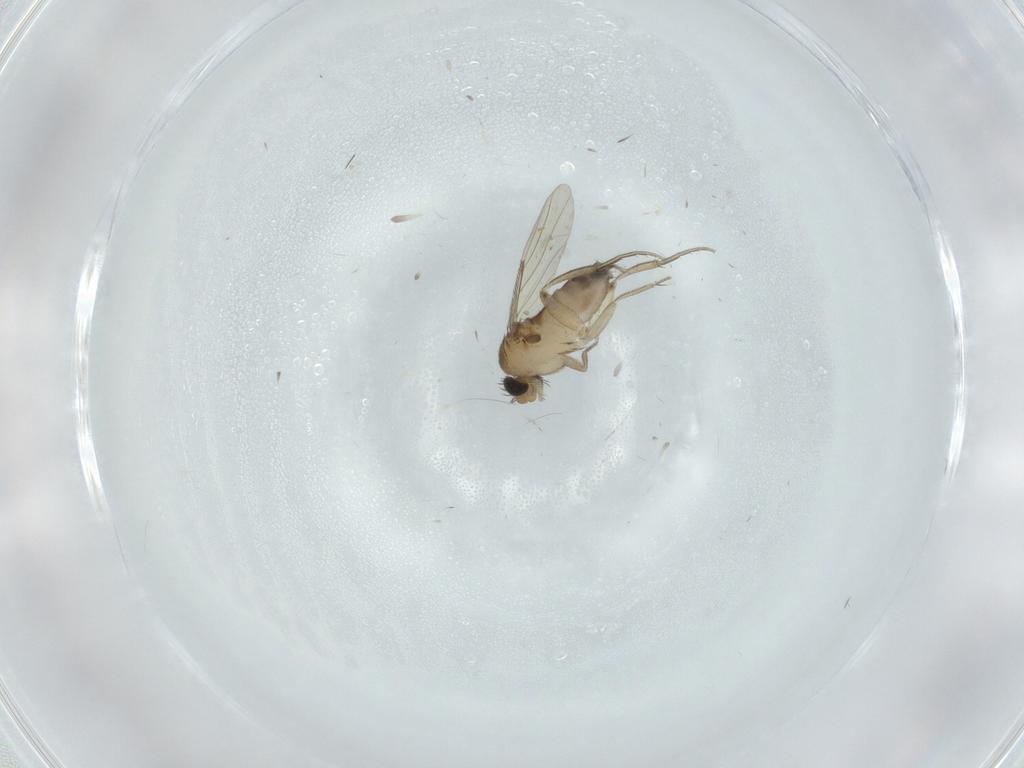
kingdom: Animalia
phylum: Arthropoda
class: Insecta
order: Diptera
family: Phoridae
